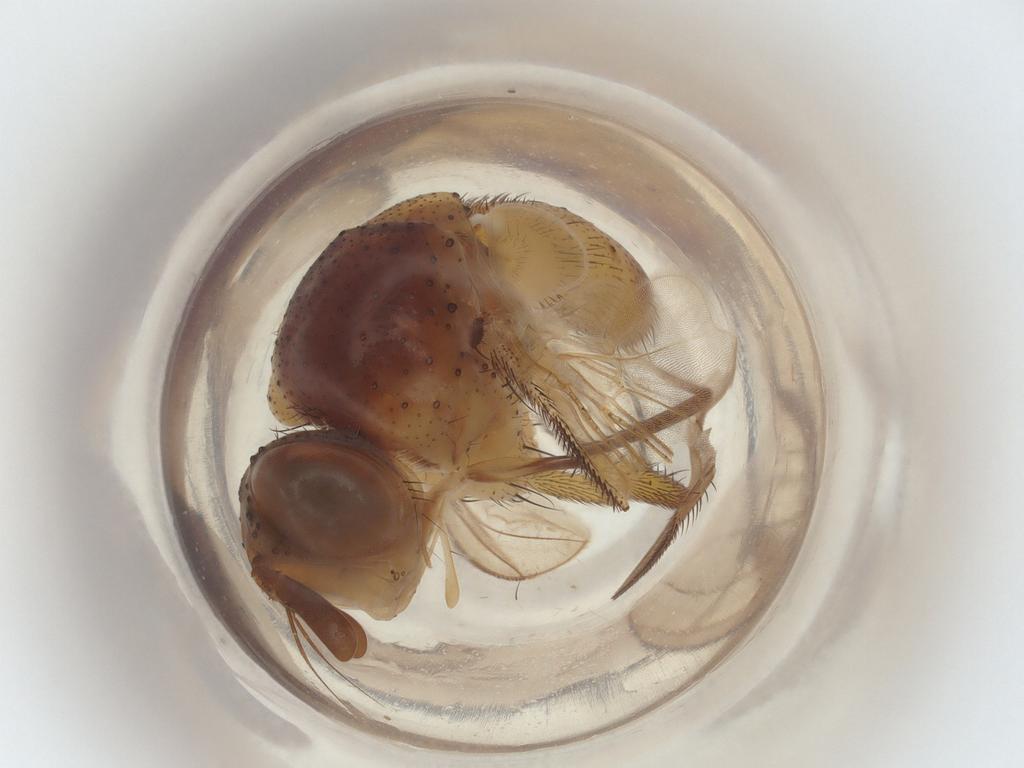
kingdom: Animalia
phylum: Arthropoda
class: Insecta
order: Diptera
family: Tachinidae
